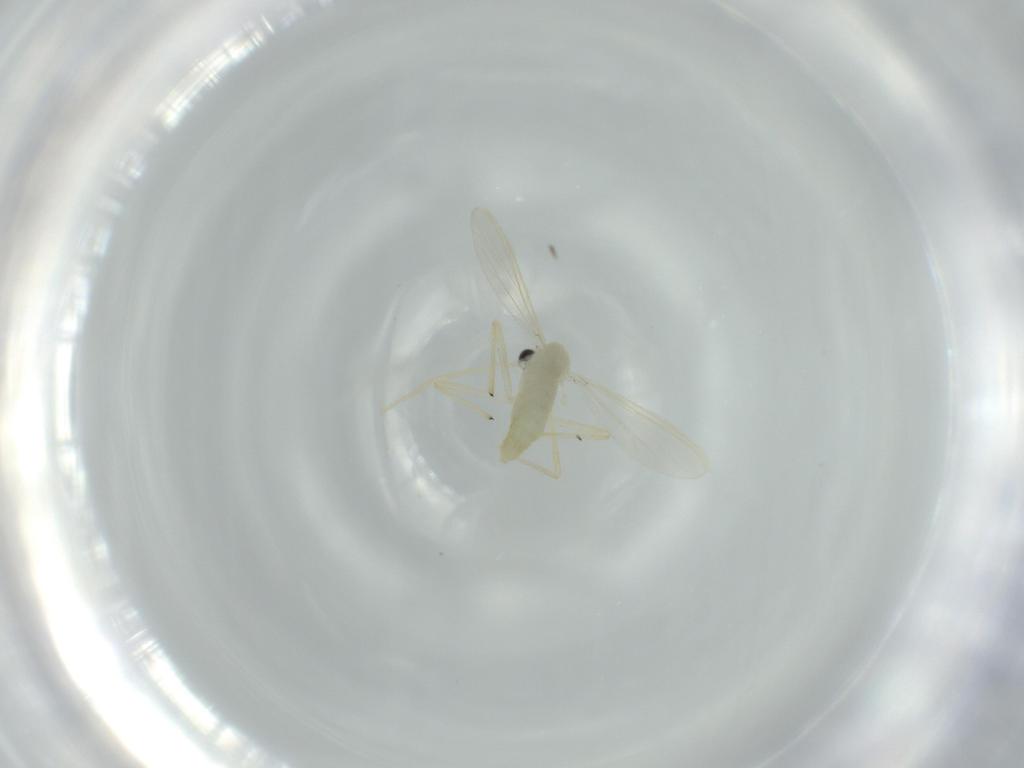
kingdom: Animalia
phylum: Arthropoda
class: Insecta
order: Diptera
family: Chironomidae
